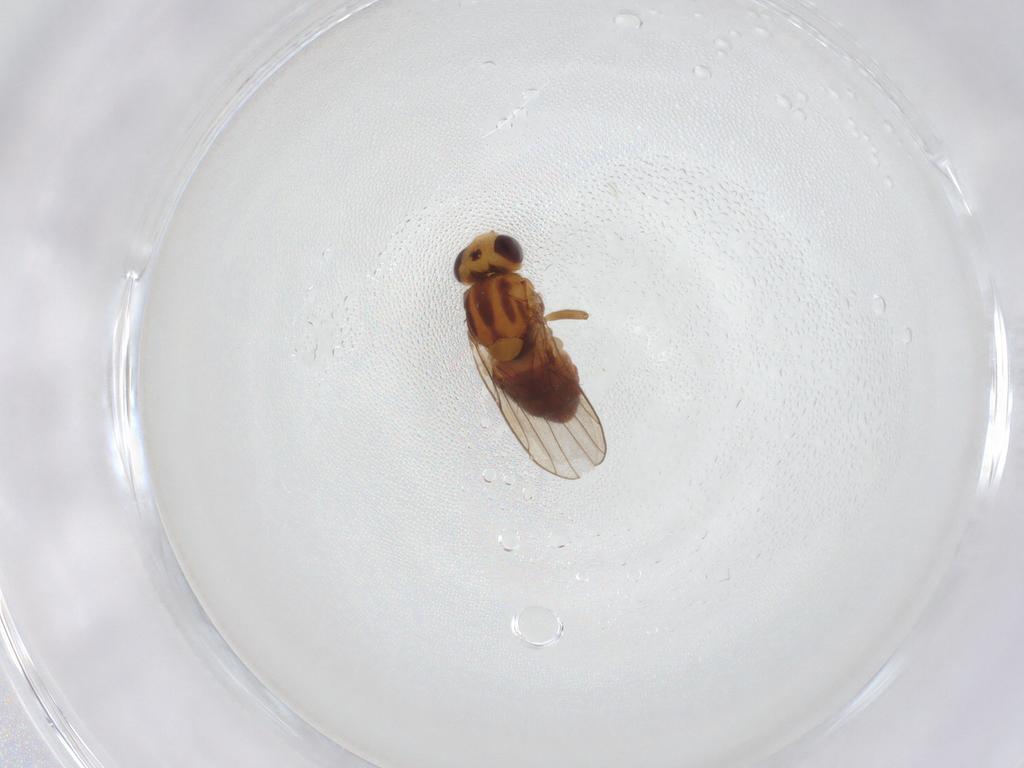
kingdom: Animalia
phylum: Arthropoda
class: Insecta
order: Diptera
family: Chloropidae
